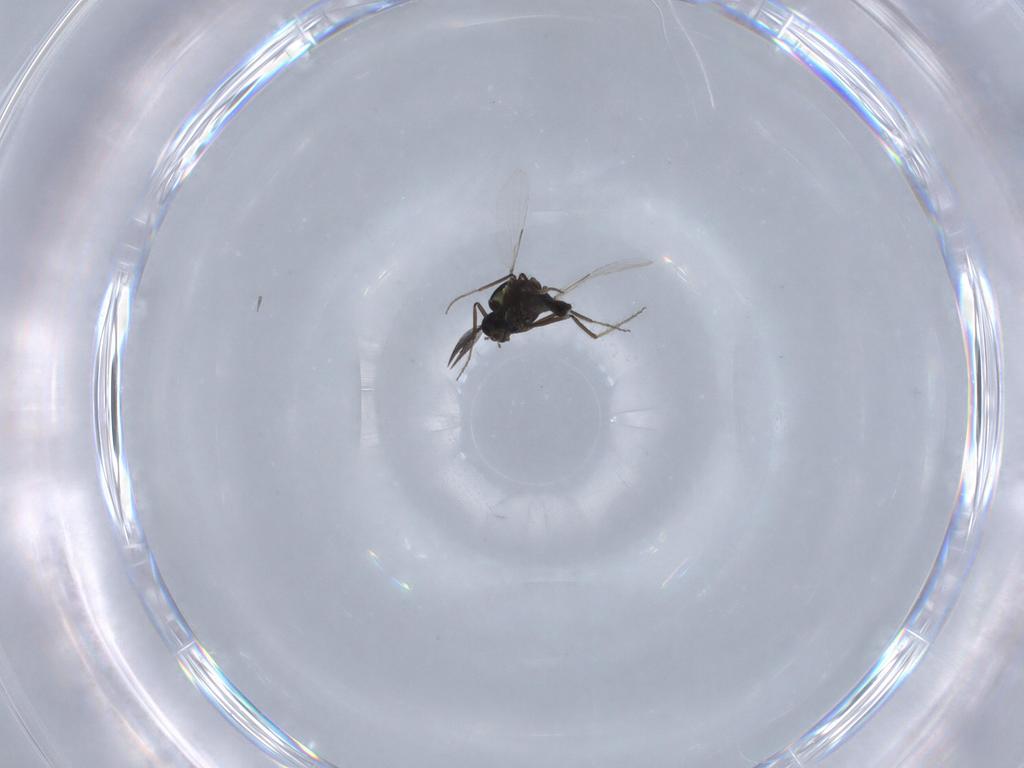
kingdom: Animalia
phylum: Arthropoda
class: Insecta
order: Diptera
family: Ceratopogonidae
